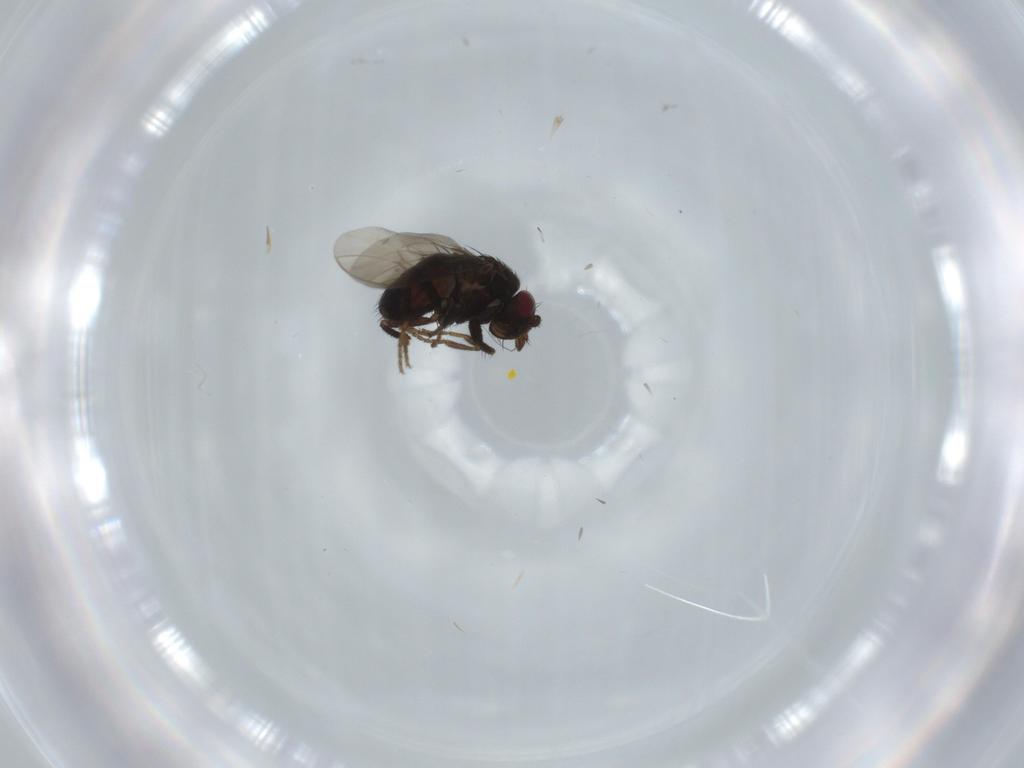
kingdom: Animalia
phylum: Arthropoda
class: Insecta
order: Diptera
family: Sphaeroceridae
